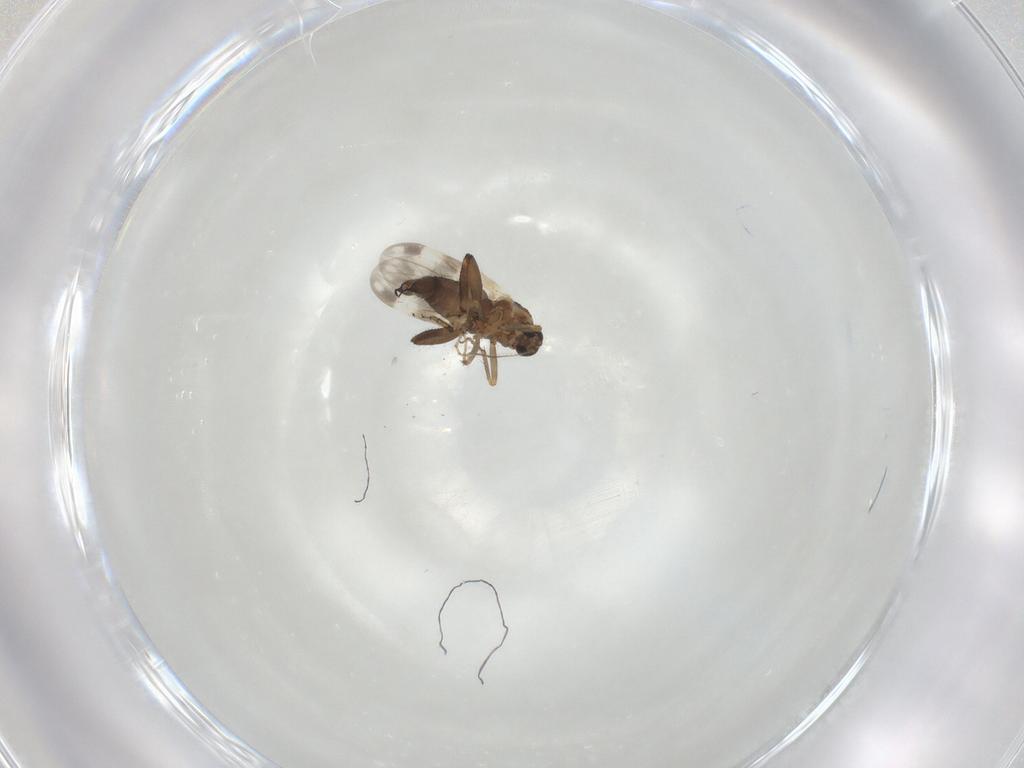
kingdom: Animalia
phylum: Arthropoda
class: Insecta
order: Diptera
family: Ceratopogonidae
